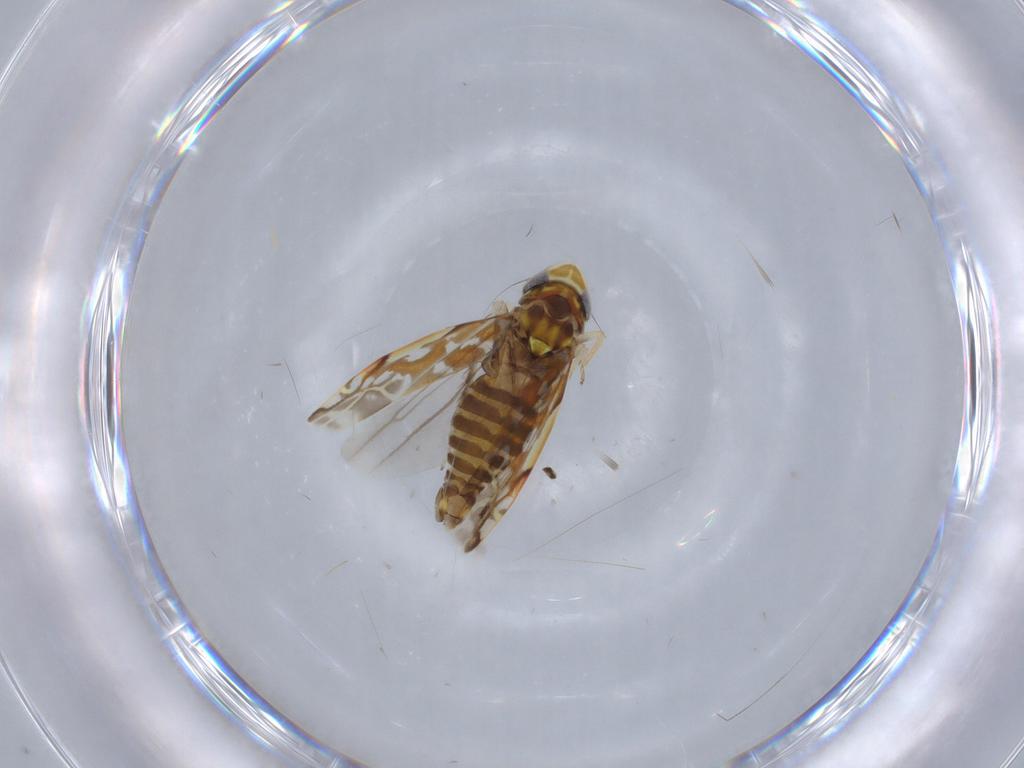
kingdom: Animalia
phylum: Arthropoda
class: Insecta
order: Hemiptera
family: Cicadellidae
